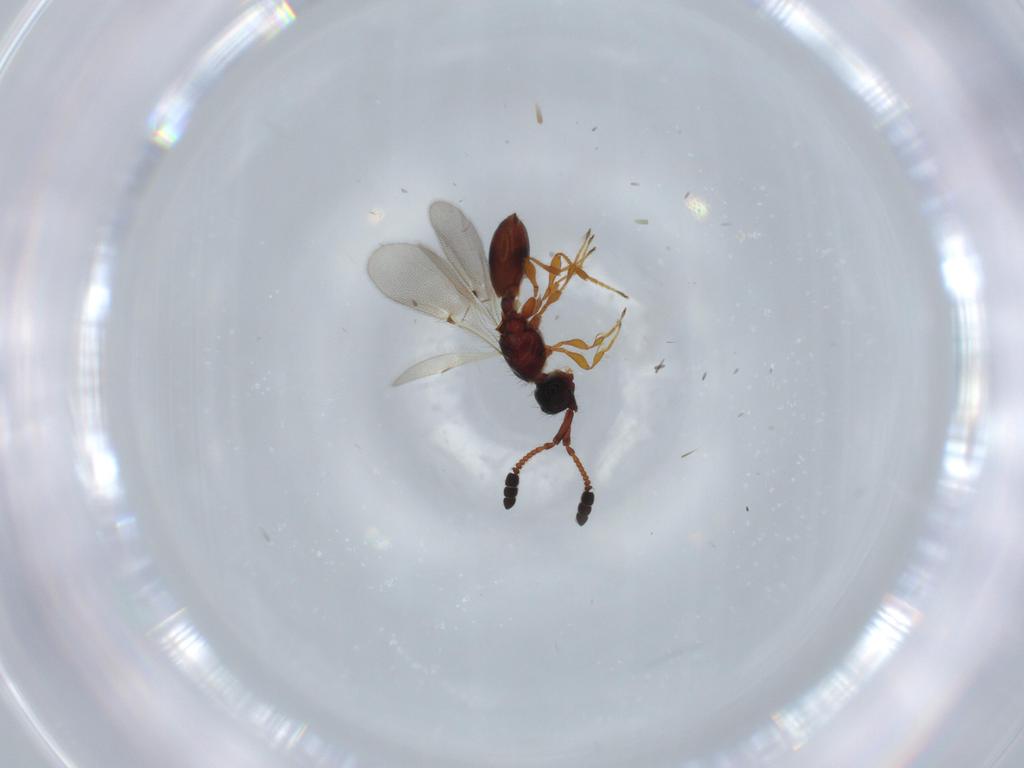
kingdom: Animalia
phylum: Arthropoda
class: Insecta
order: Hymenoptera
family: Diapriidae
